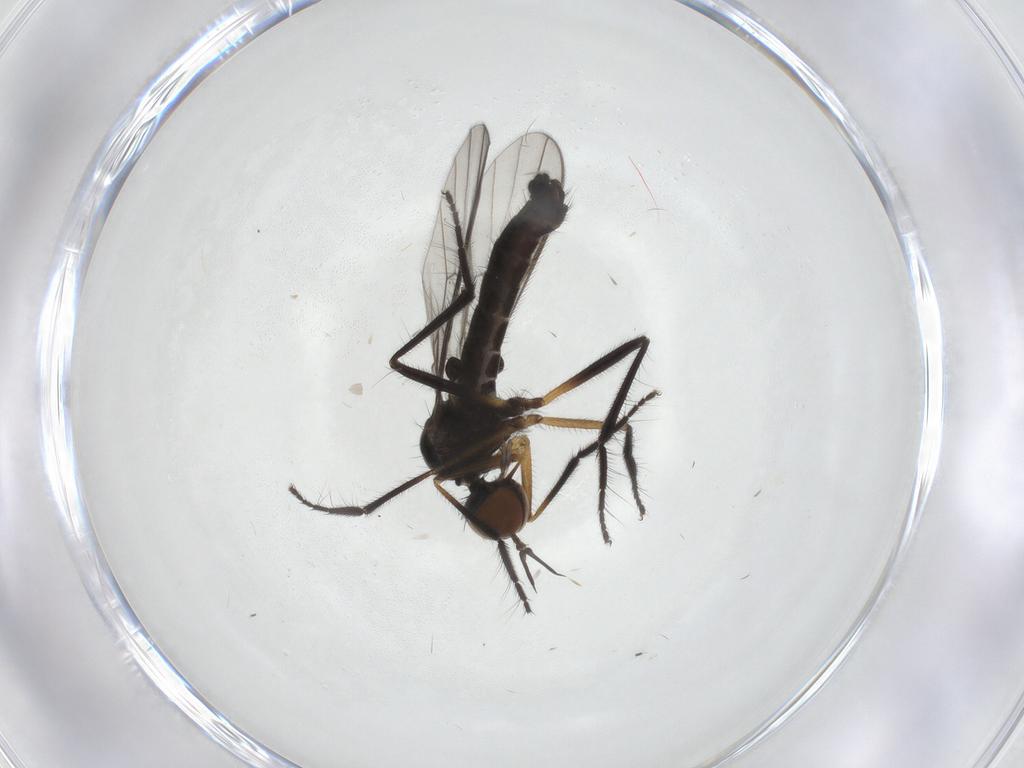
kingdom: Animalia
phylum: Arthropoda
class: Insecta
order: Diptera
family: Empididae
